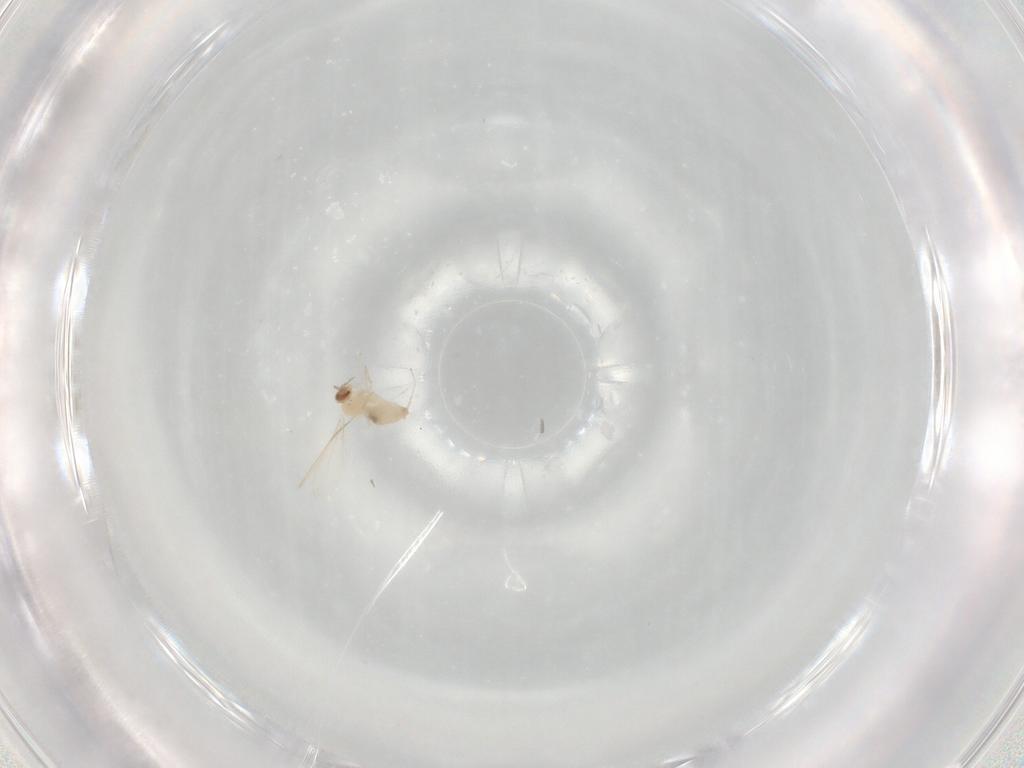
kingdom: Animalia
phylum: Arthropoda
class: Insecta
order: Diptera
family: Cecidomyiidae
